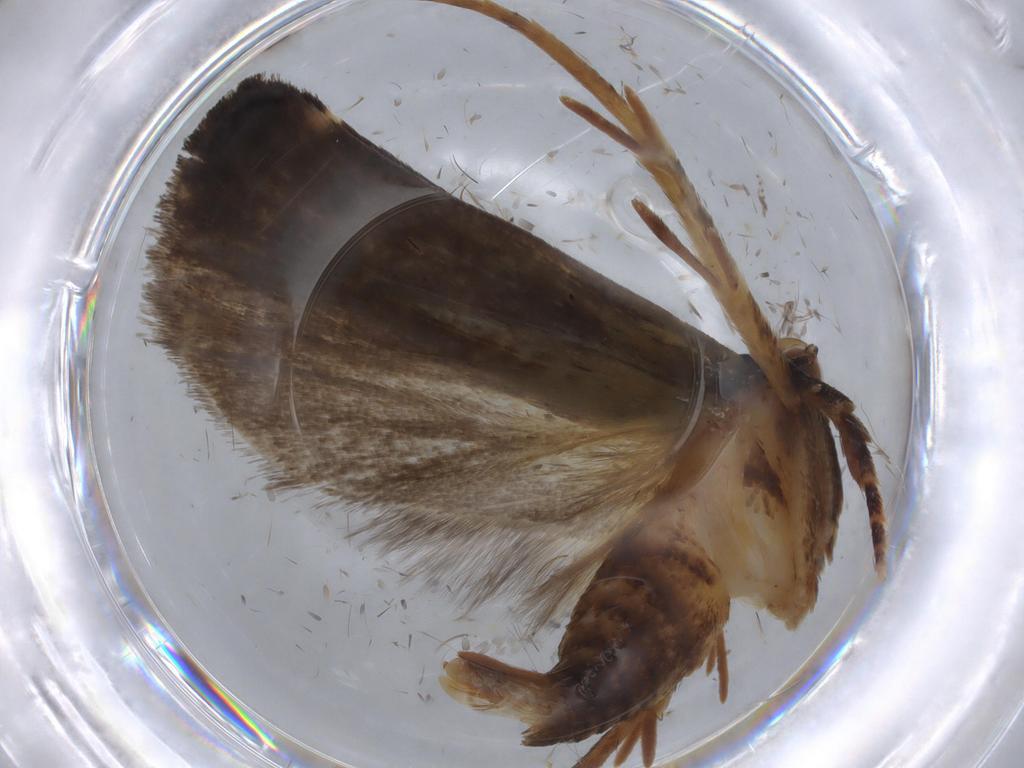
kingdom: Animalia
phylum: Arthropoda
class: Insecta
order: Lepidoptera
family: Gelechiidae
